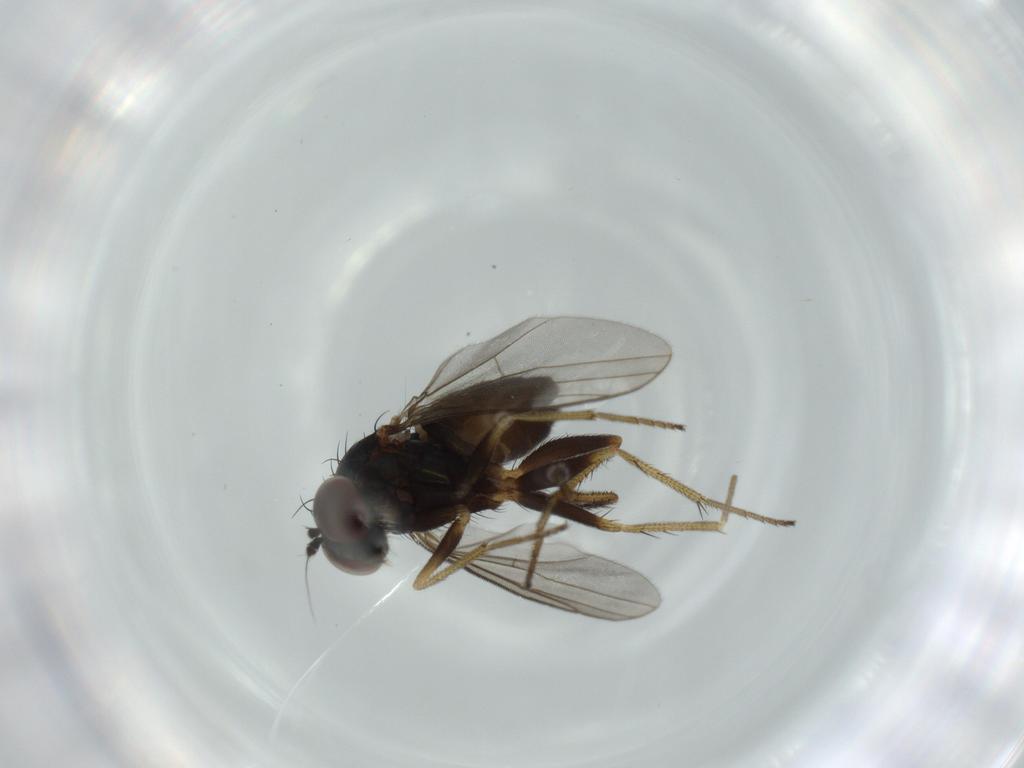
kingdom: Animalia
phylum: Arthropoda
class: Insecta
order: Diptera
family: Dolichopodidae
